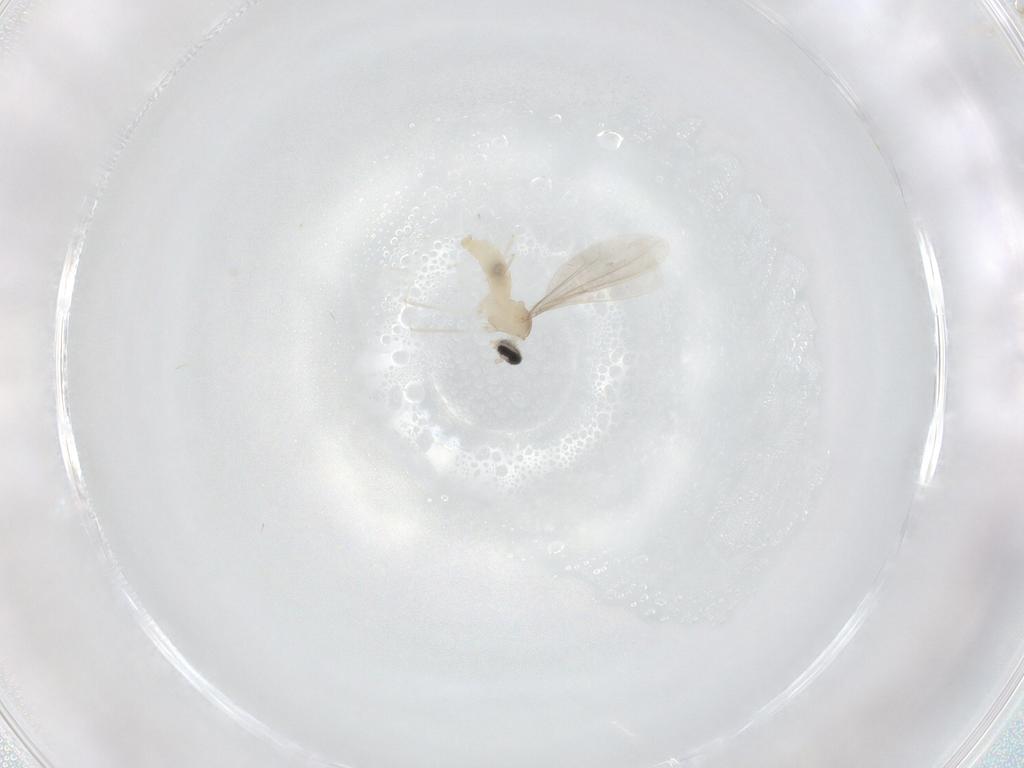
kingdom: Animalia
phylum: Arthropoda
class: Insecta
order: Diptera
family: Cecidomyiidae
